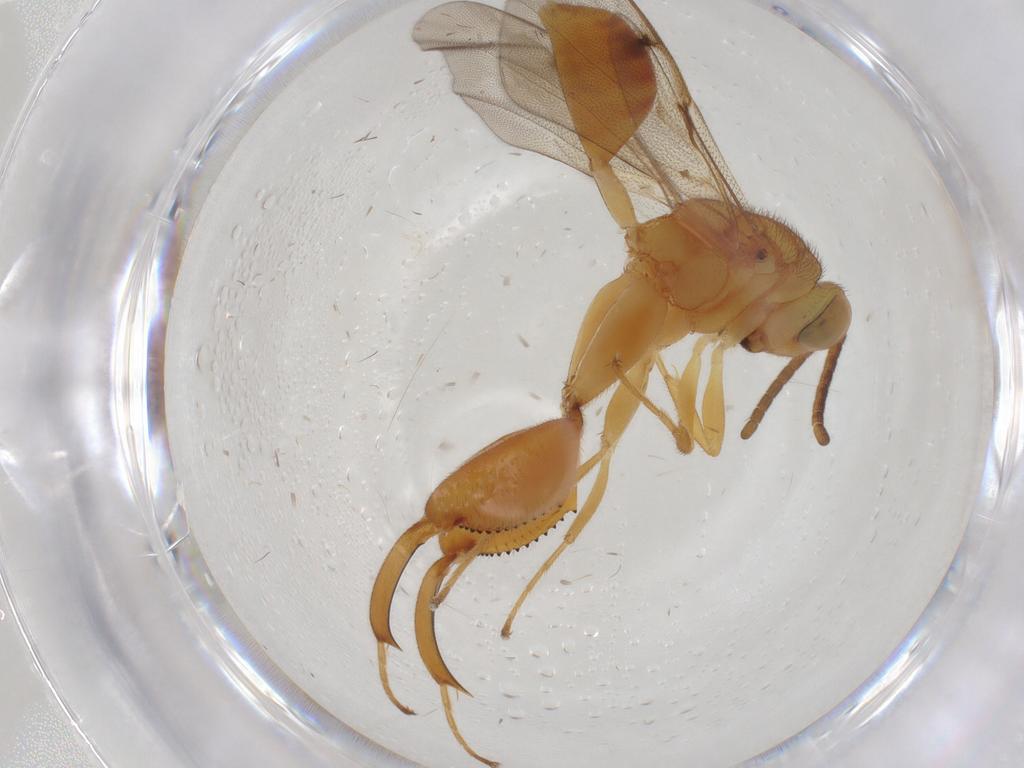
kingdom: Animalia
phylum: Arthropoda
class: Insecta
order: Hymenoptera
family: Chalcididae
